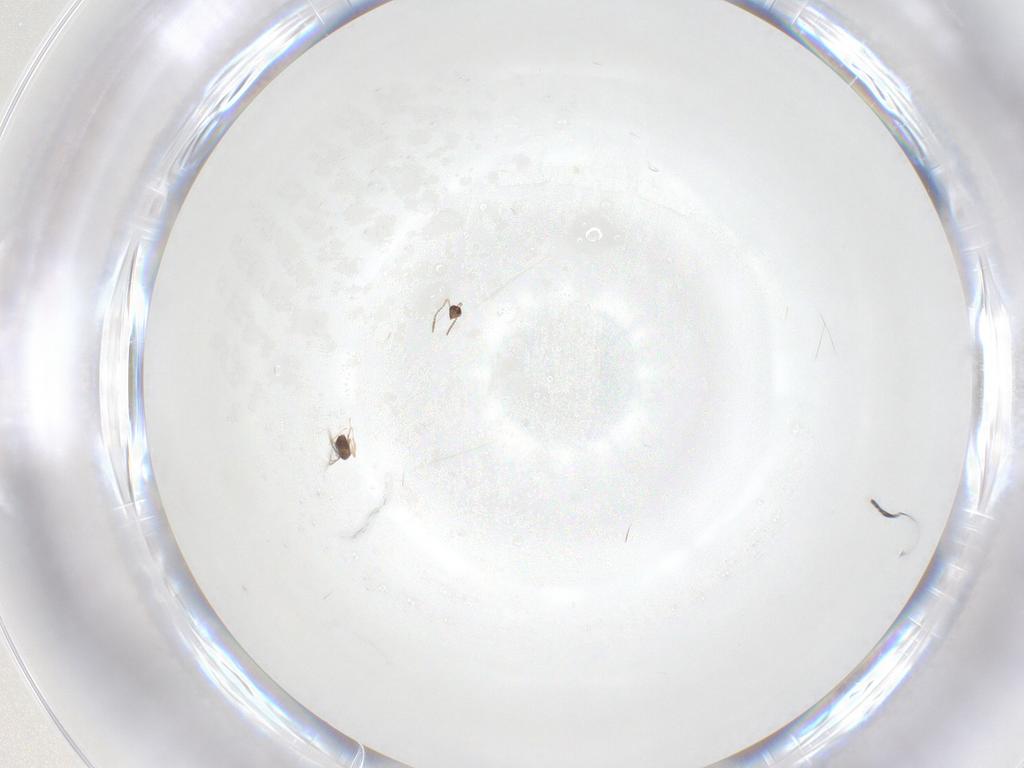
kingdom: Animalia
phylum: Arthropoda
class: Insecta
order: Hymenoptera
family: Mymaridae
